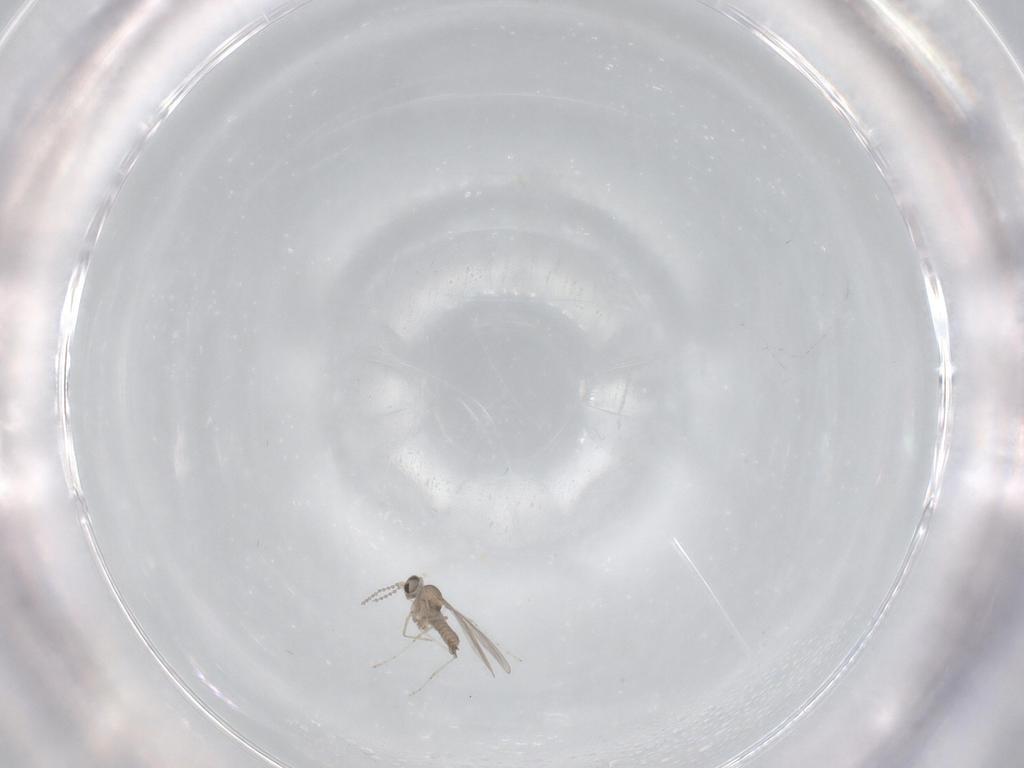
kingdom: Animalia
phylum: Arthropoda
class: Insecta
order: Diptera
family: Cecidomyiidae
